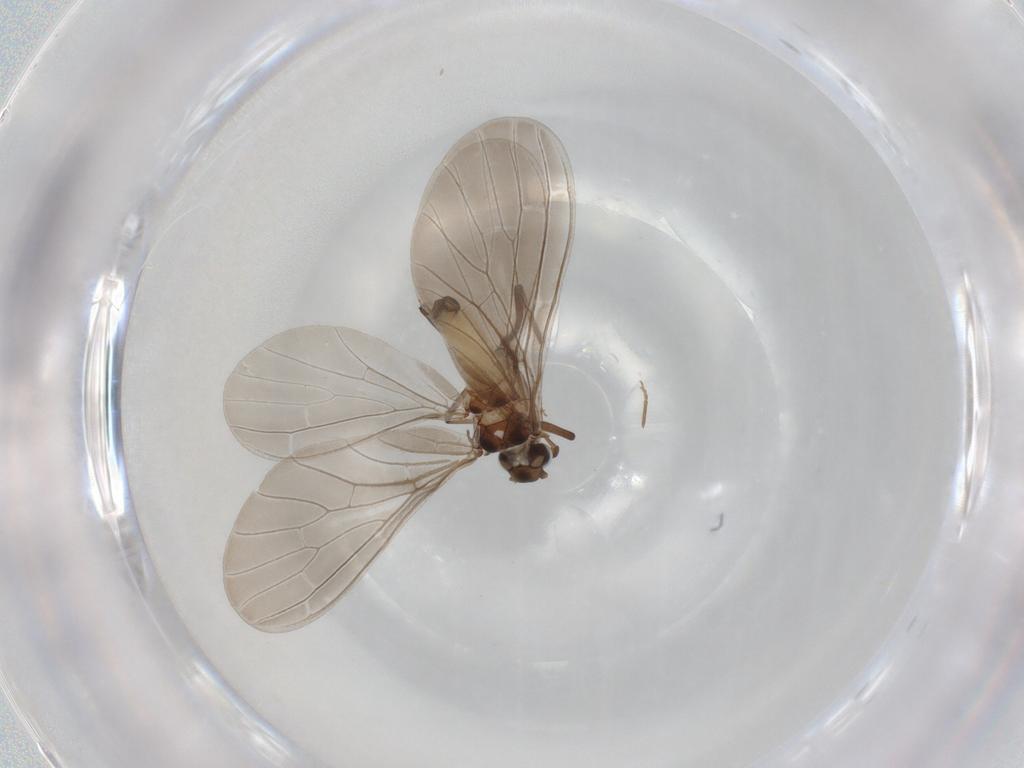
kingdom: Animalia
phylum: Arthropoda
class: Insecta
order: Neuroptera
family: Coniopterygidae
